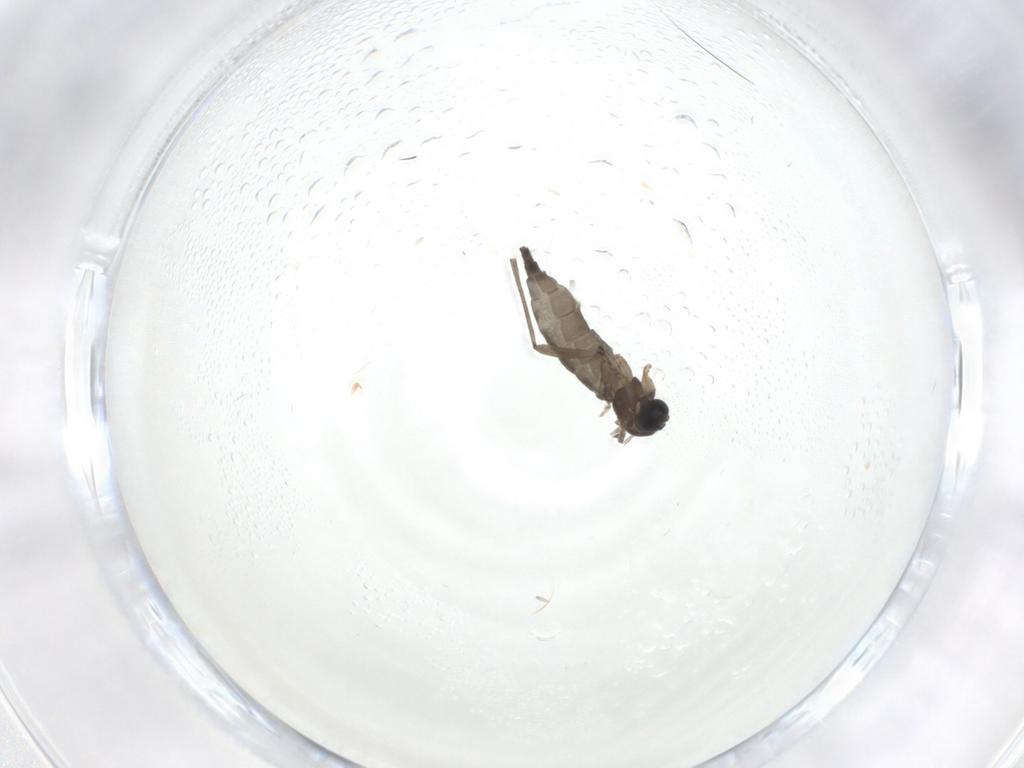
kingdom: Animalia
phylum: Arthropoda
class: Insecta
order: Diptera
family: Sciaridae
